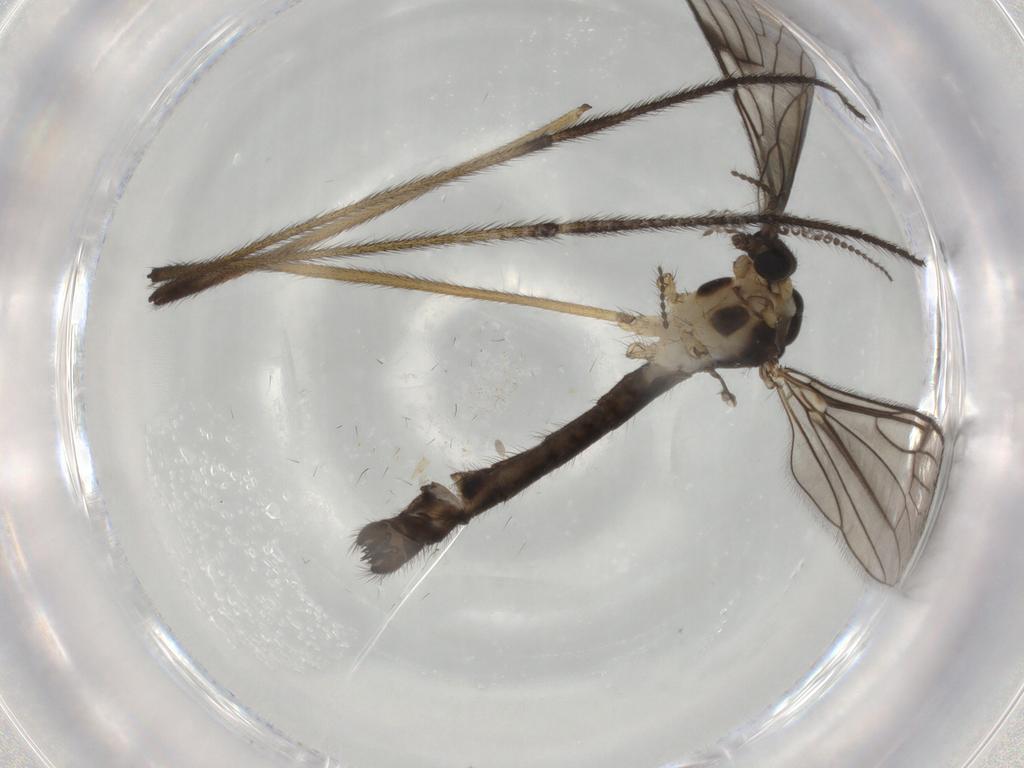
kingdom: Animalia
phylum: Arthropoda
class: Insecta
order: Diptera
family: Limoniidae
